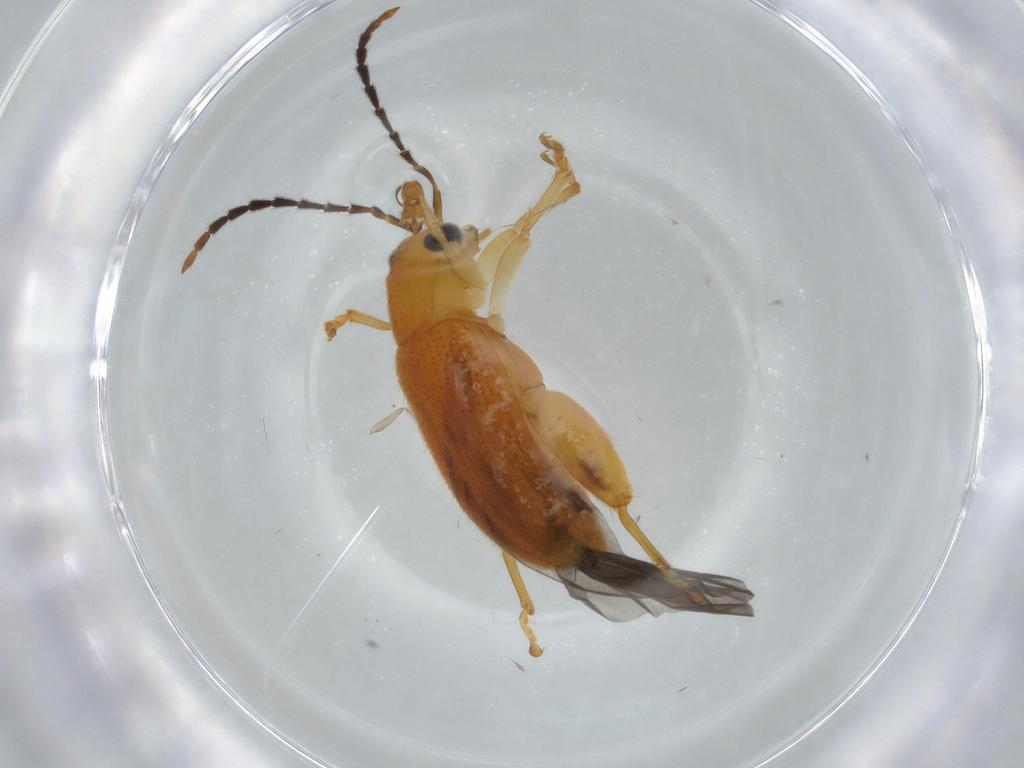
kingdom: Animalia
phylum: Arthropoda
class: Insecta
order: Coleoptera
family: Chrysomelidae
